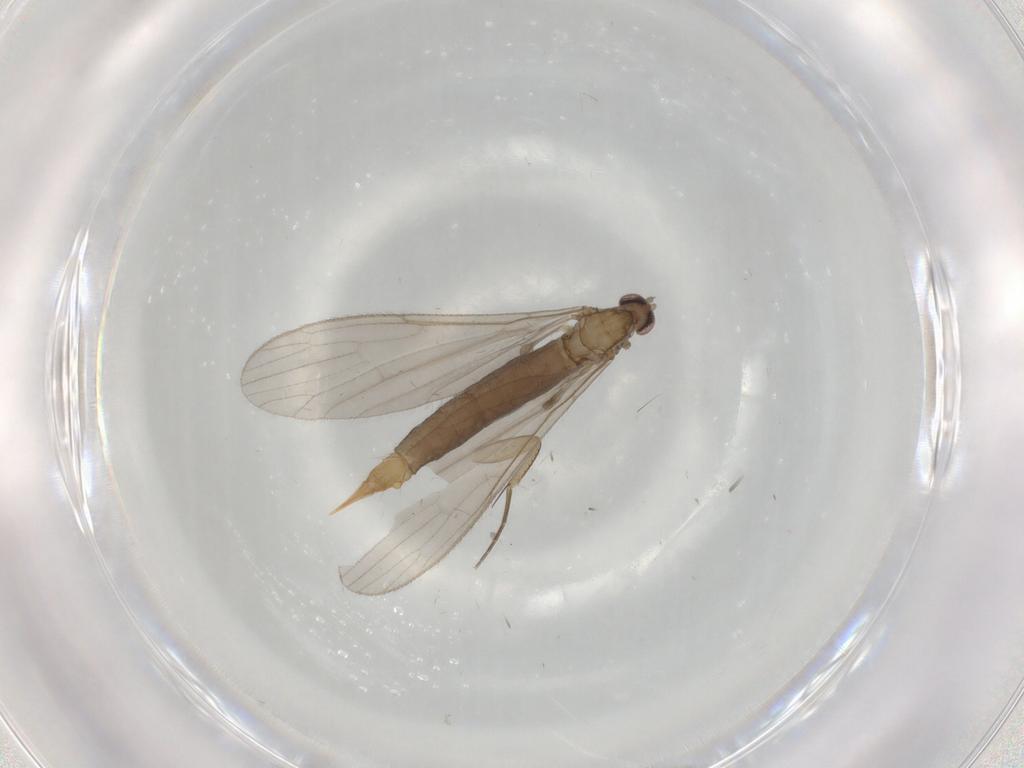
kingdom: Animalia
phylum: Arthropoda
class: Insecta
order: Diptera
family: Limoniidae
